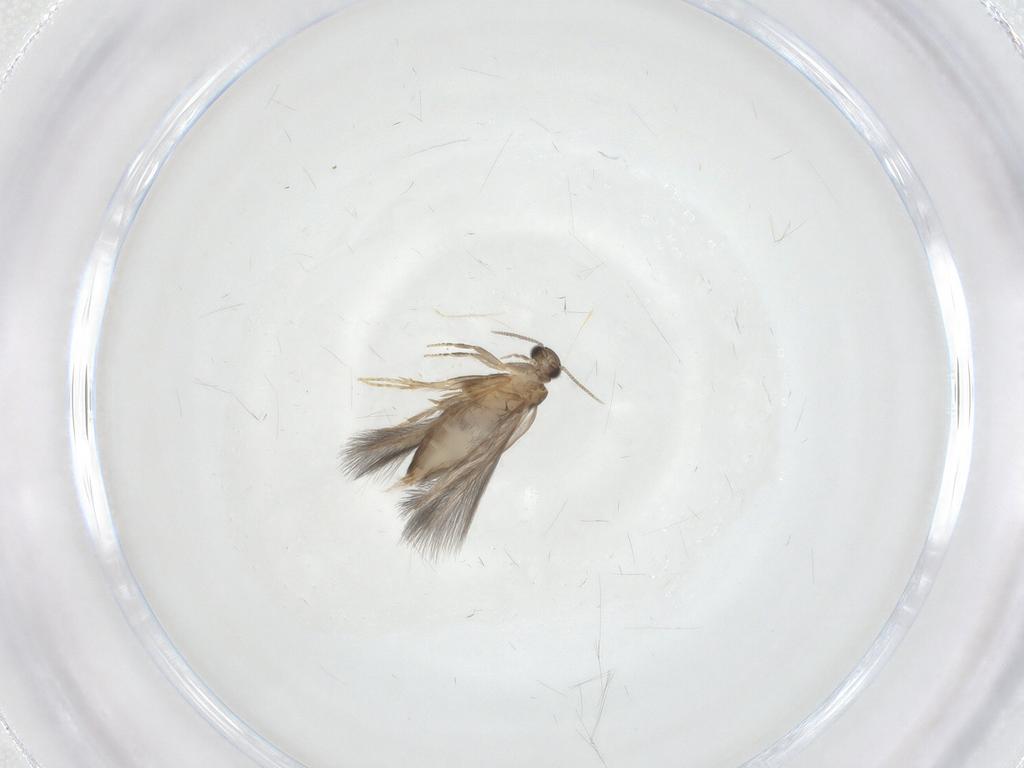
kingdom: Animalia
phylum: Arthropoda
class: Insecta
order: Trichoptera
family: Hydroptilidae
